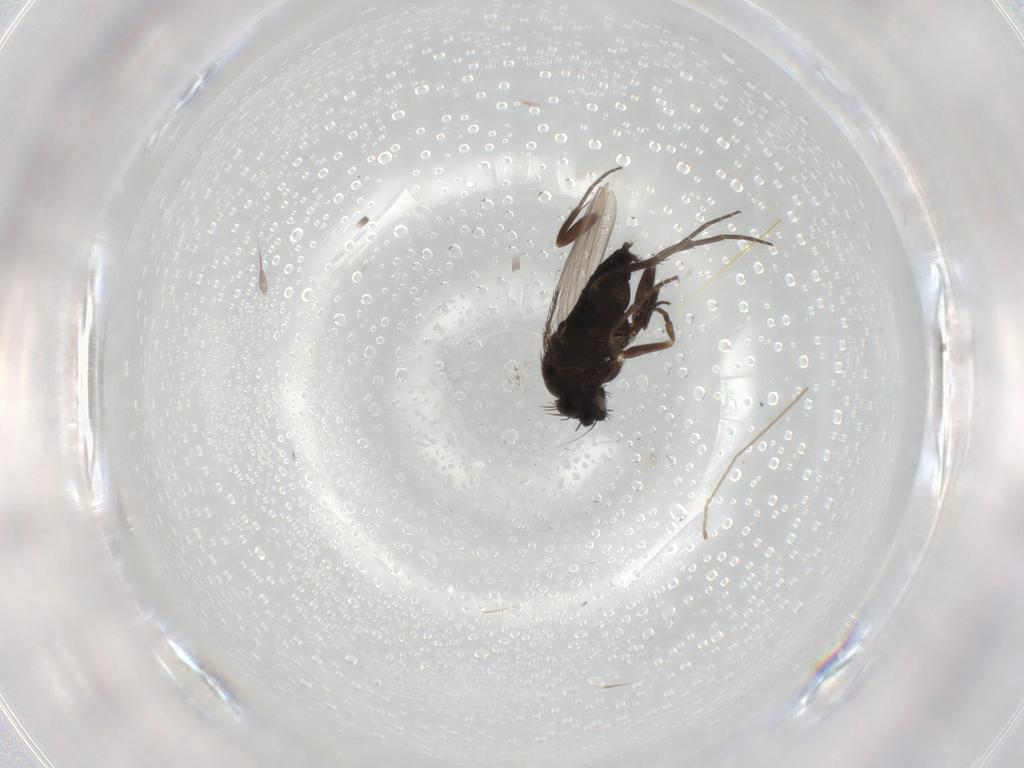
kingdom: Animalia
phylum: Arthropoda
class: Insecta
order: Diptera
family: Phoridae
